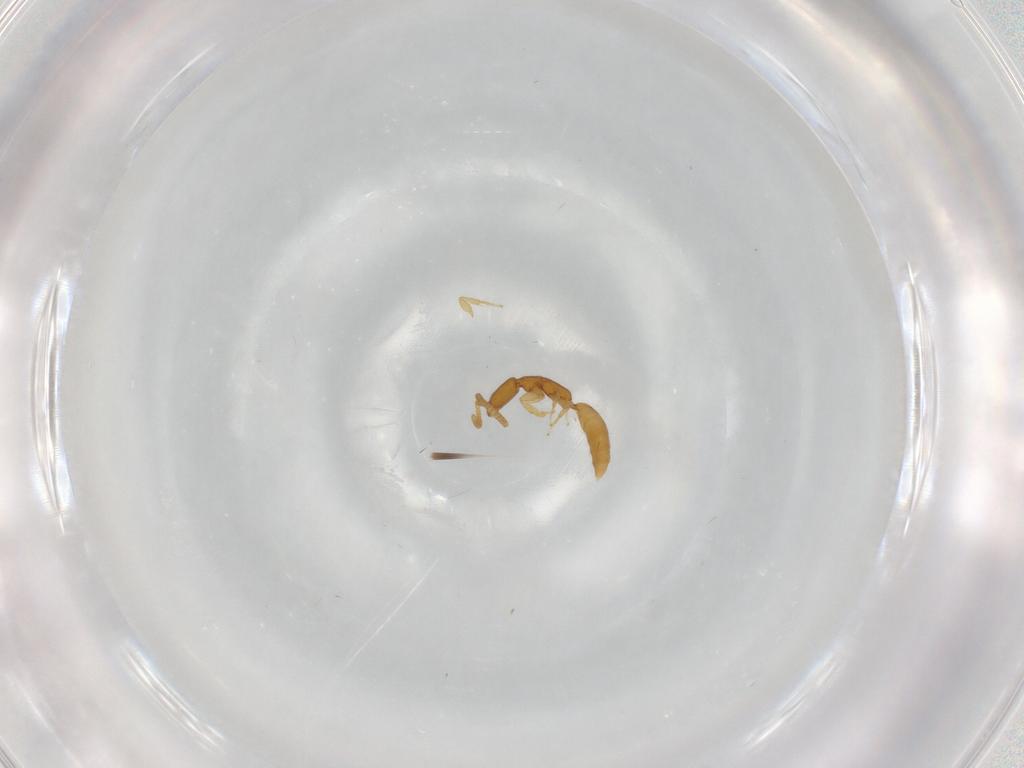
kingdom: Animalia
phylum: Arthropoda
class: Insecta
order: Hymenoptera
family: Bethylidae
